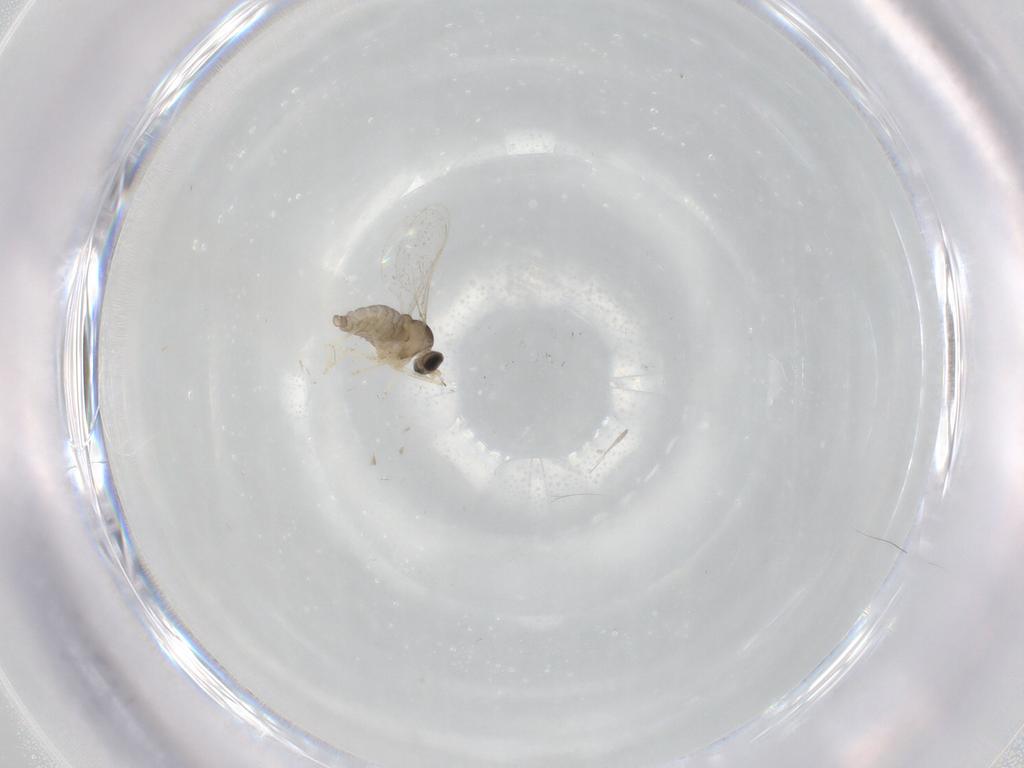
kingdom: Animalia
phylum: Arthropoda
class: Insecta
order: Diptera
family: Cecidomyiidae
